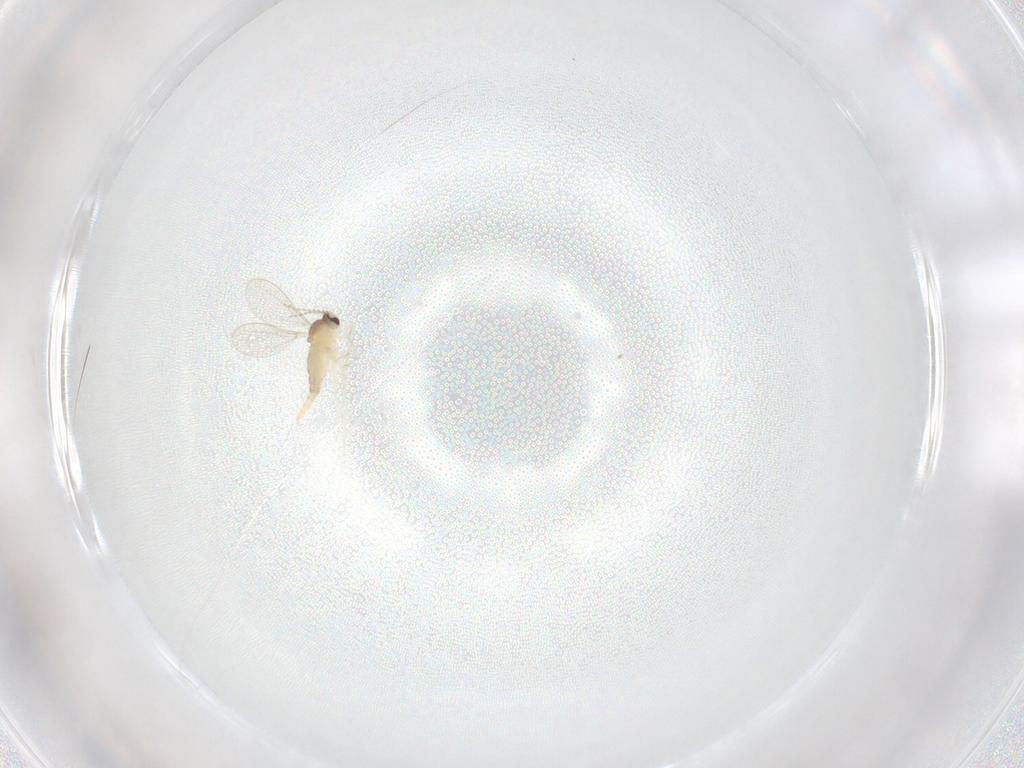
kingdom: Animalia
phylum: Arthropoda
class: Insecta
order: Diptera
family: Cecidomyiidae
